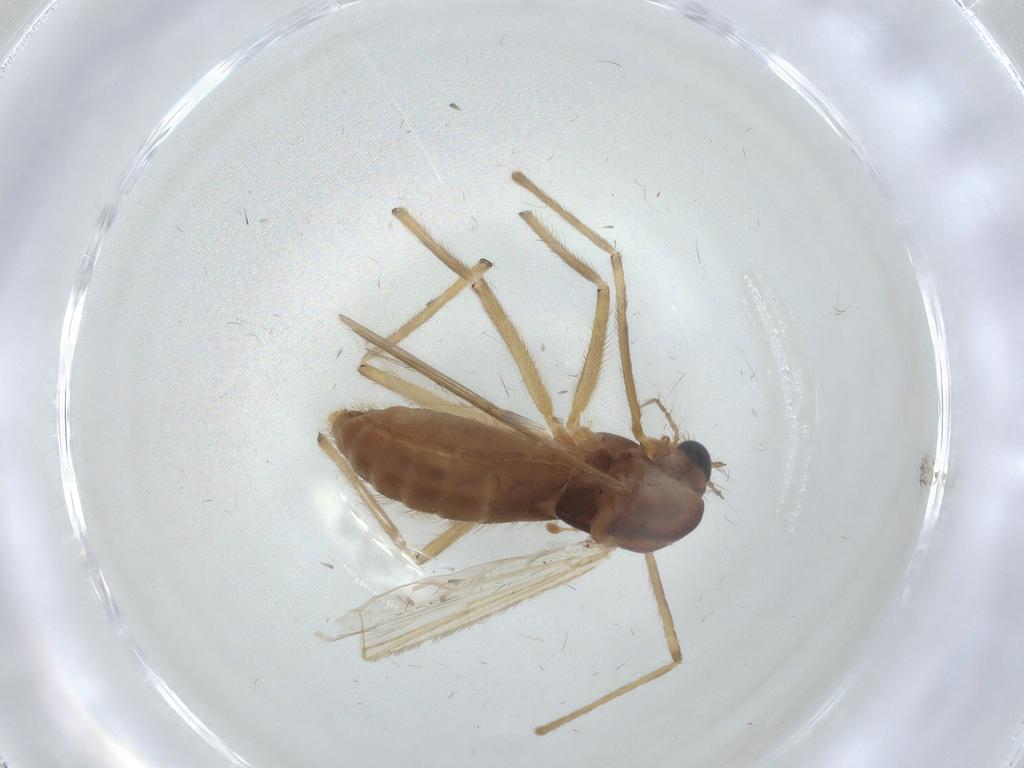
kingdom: Animalia
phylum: Arthropoda
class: Insecta
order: Diptera
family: Chironomidae
